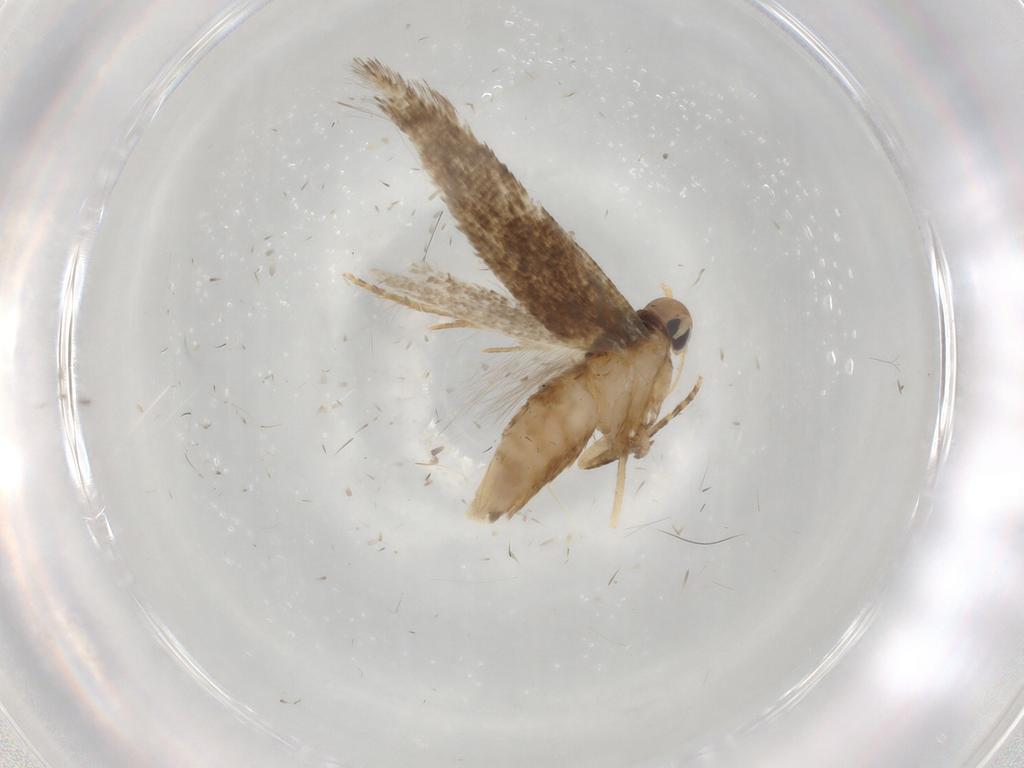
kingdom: Animalia
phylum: Arthropoda
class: Insecta
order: Lepidoptera
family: Cosmopterigidae
